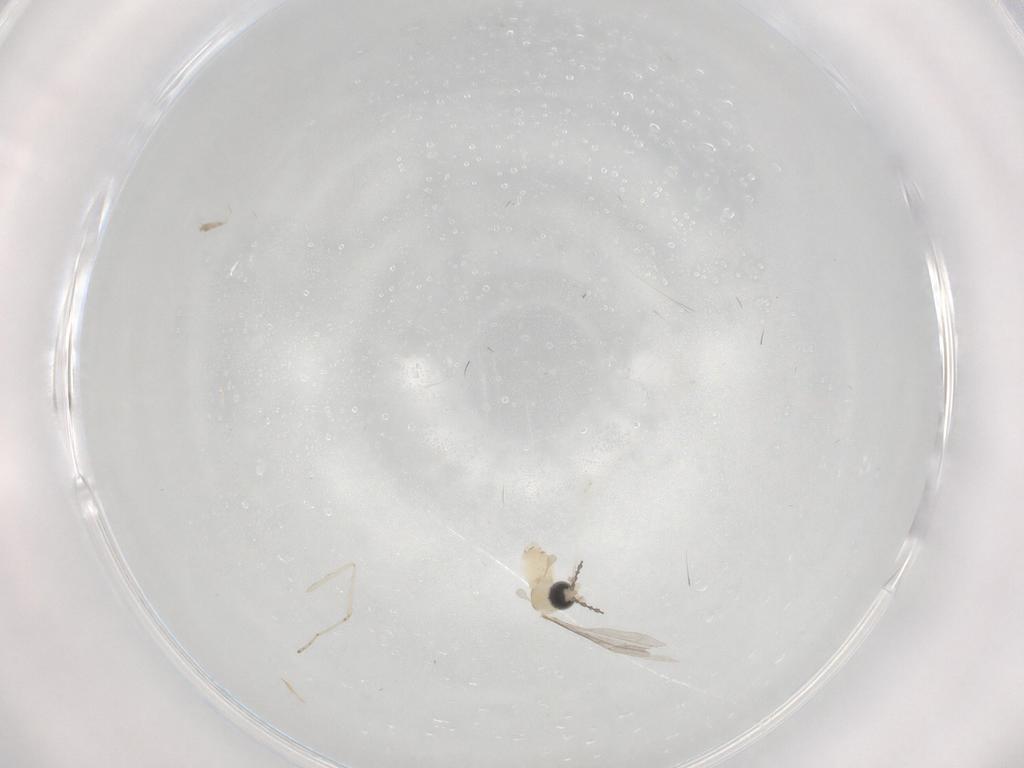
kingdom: Animalia
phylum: Arthropoda
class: Insecta
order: Diptera
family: Cecidomyiidae
